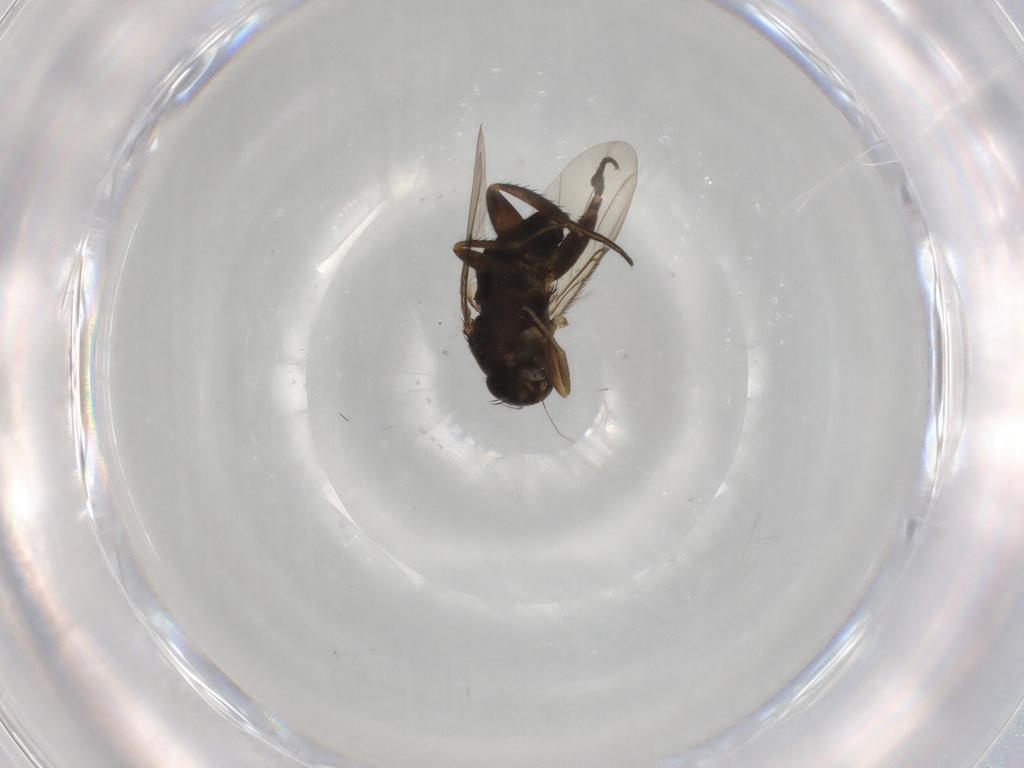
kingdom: Animalia
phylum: Arthropoda
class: Insecta
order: Diptera
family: Phoridae
